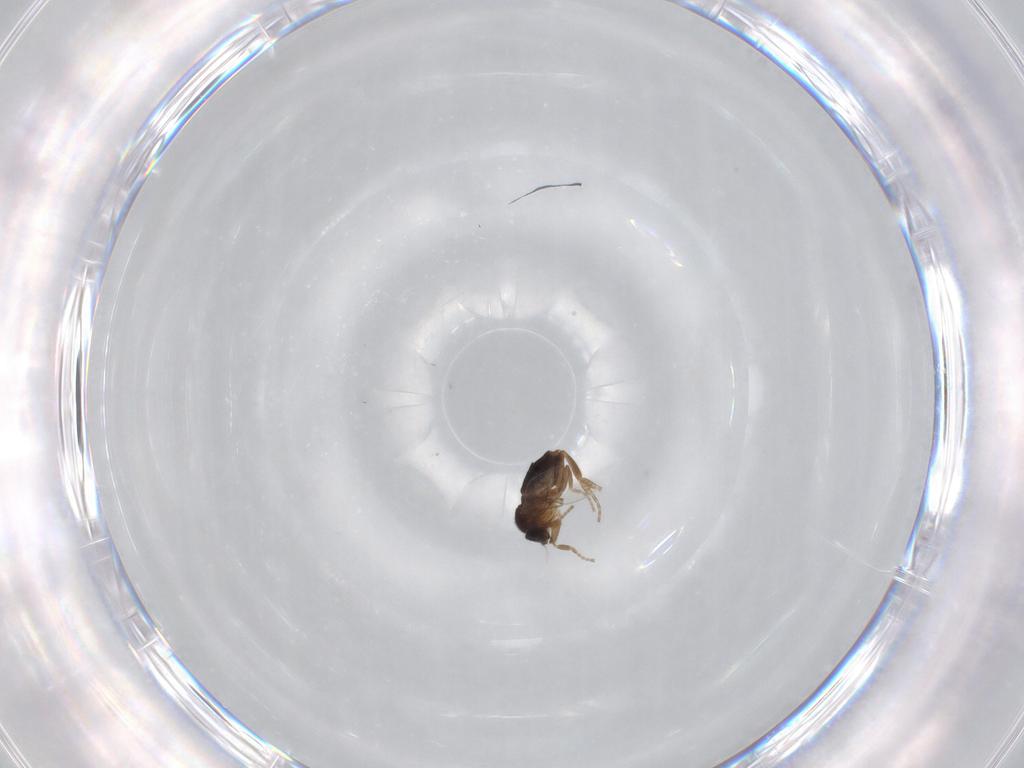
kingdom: Animalia
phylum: Arthropoda
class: Insecta
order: Diptera
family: Phoridae
